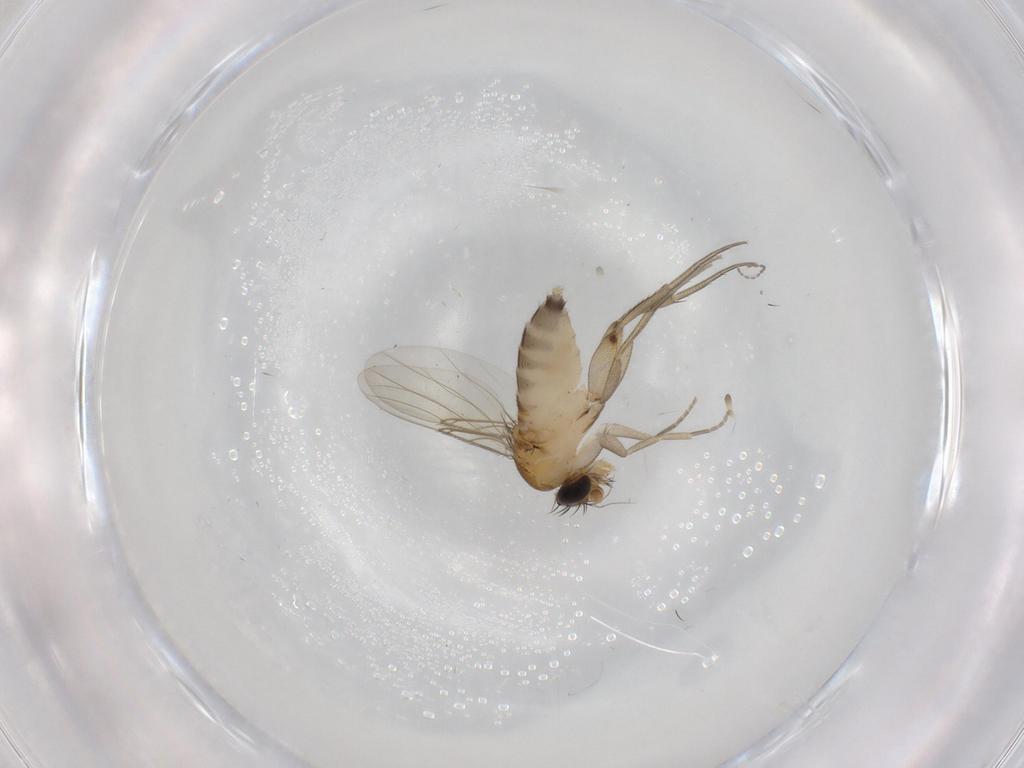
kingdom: Animalia
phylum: Arthropoda
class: Insecta
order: Diptera
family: Phoridae
